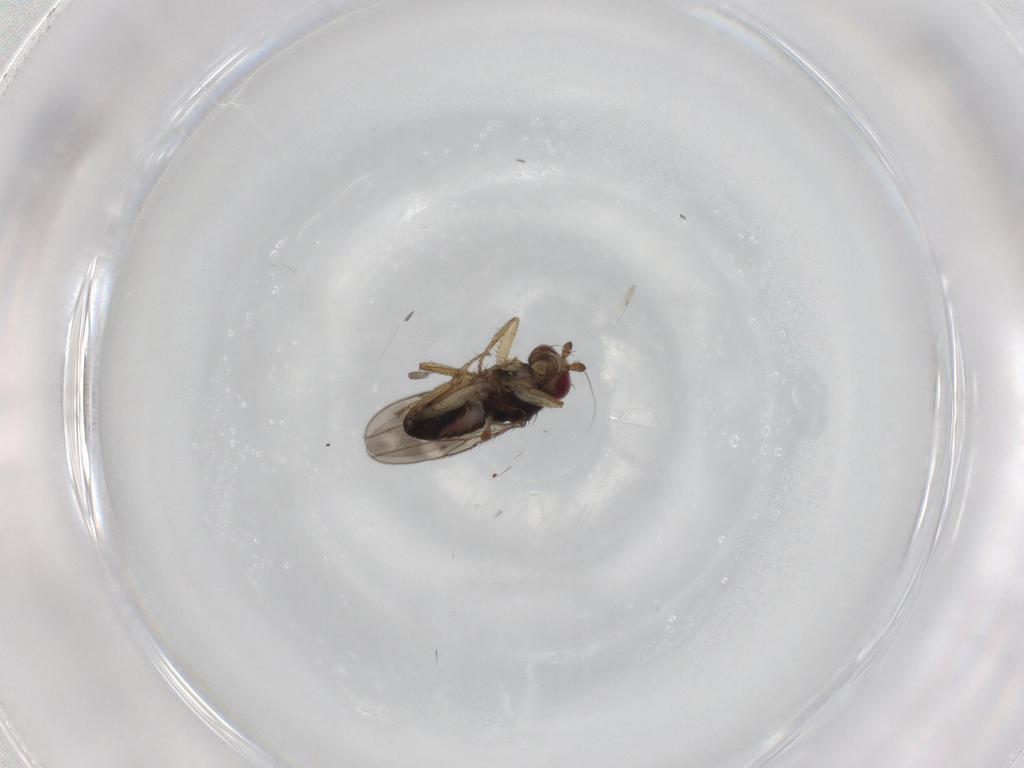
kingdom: Animalia
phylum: Arthropoda
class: Insecta
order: Diptera
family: Sphaeroceridae
